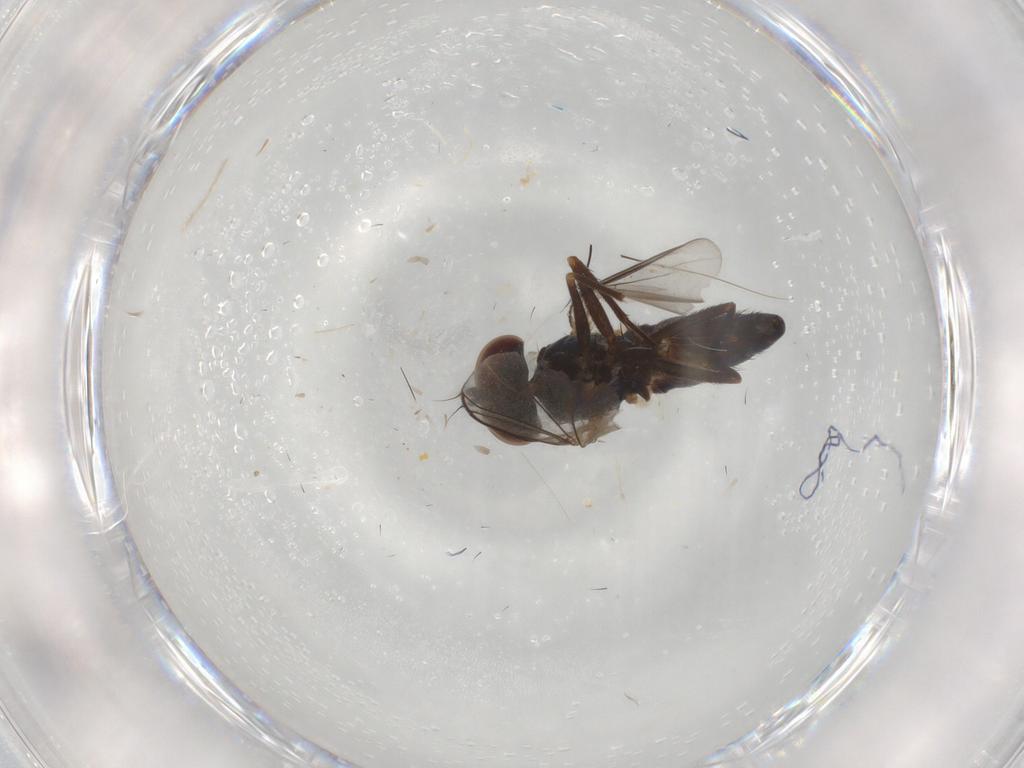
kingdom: Animalia
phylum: Arthropoda
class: Insecta
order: Diptera
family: Dolichopodidae
